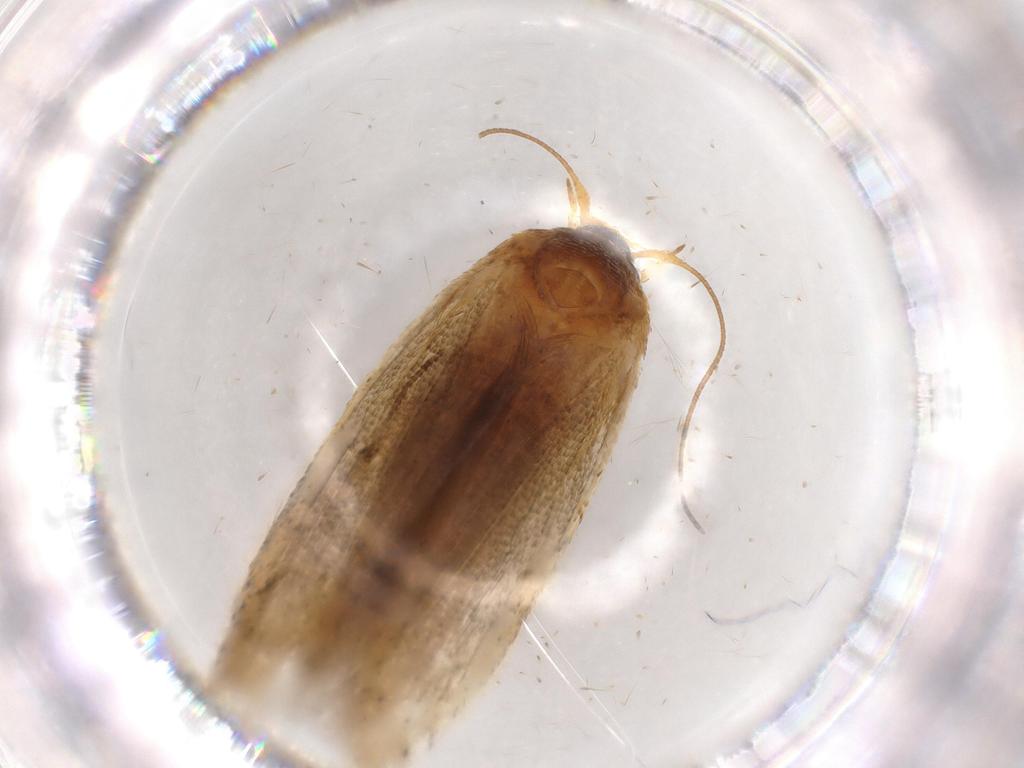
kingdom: Animalia
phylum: Arthropoda
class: Insecta
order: Lepidoptera
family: Blastobasidae
